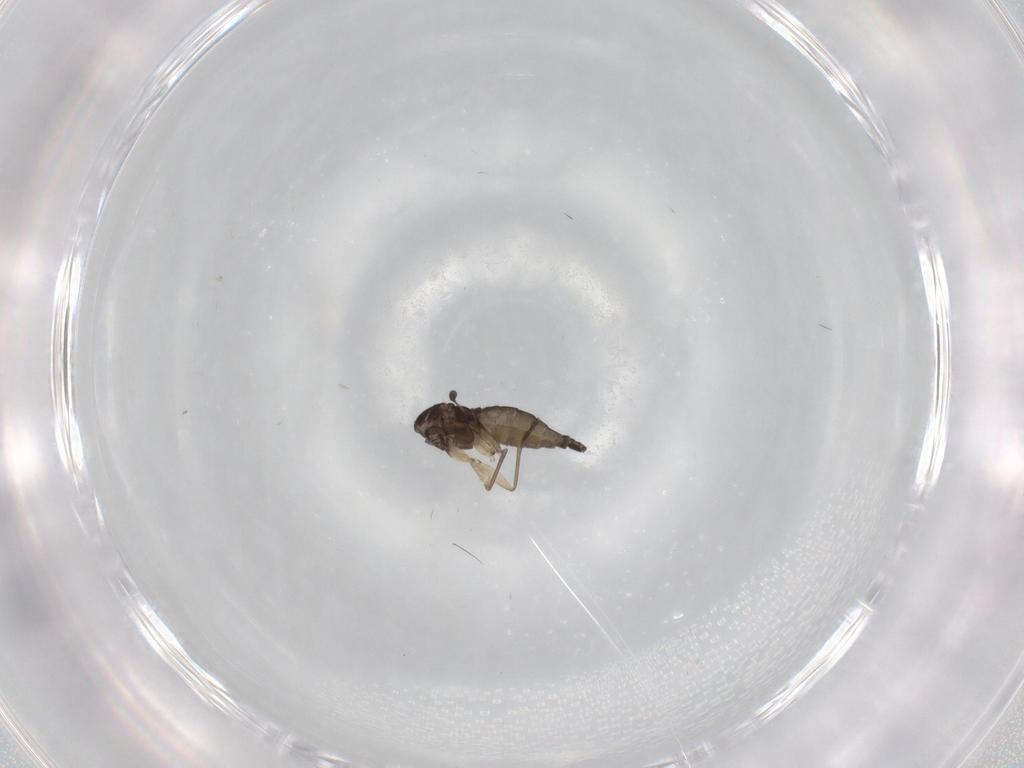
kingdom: Animalia
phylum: Arthropoda
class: Insecta
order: Diptera
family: Sciaridae
